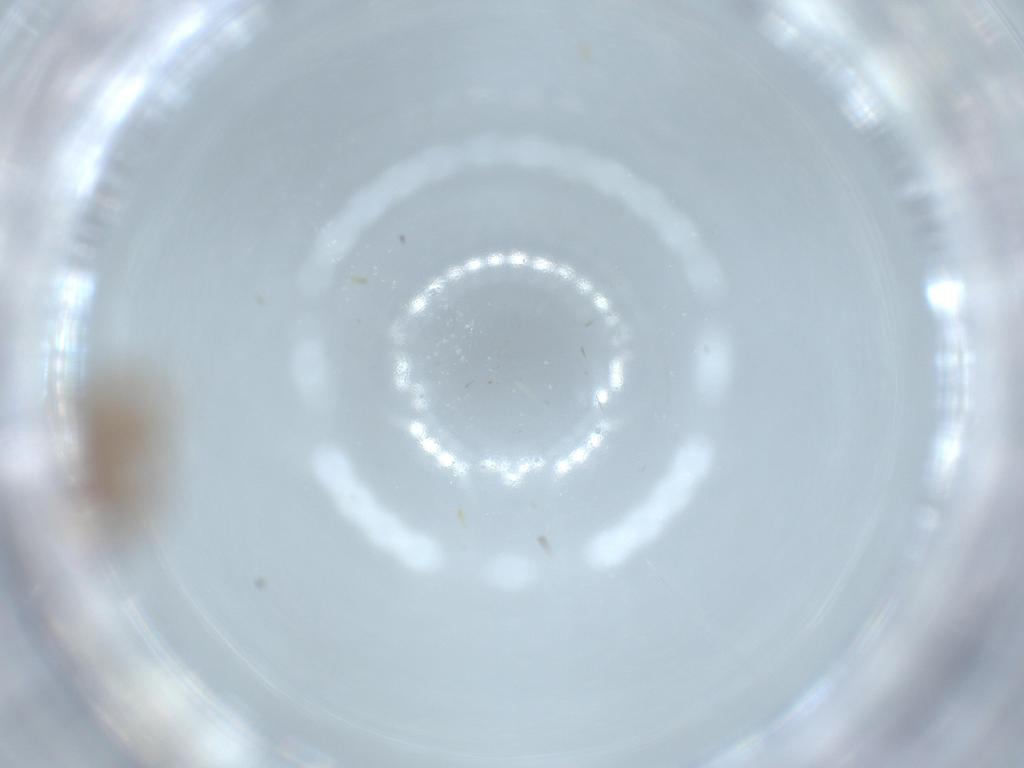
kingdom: Animalia
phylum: Arthropoda
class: Insecta
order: Hymenoptera
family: Formicidae
